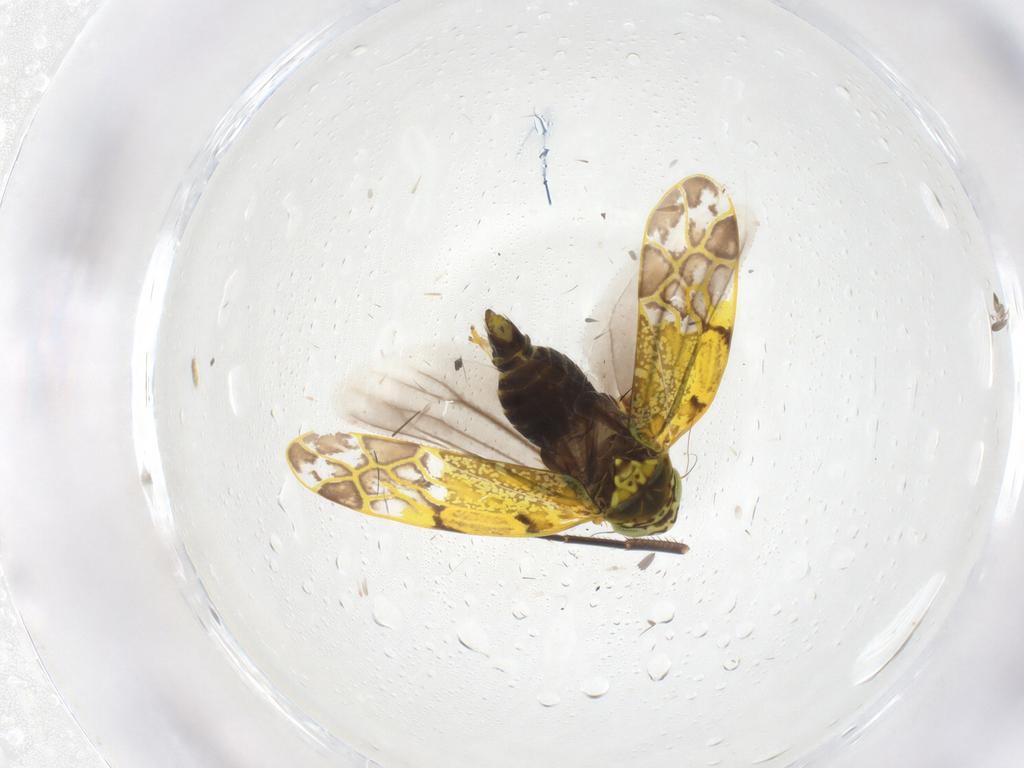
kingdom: Animalia
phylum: Arthropoda
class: Insecta
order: Hemiptera
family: Cicadellidae
